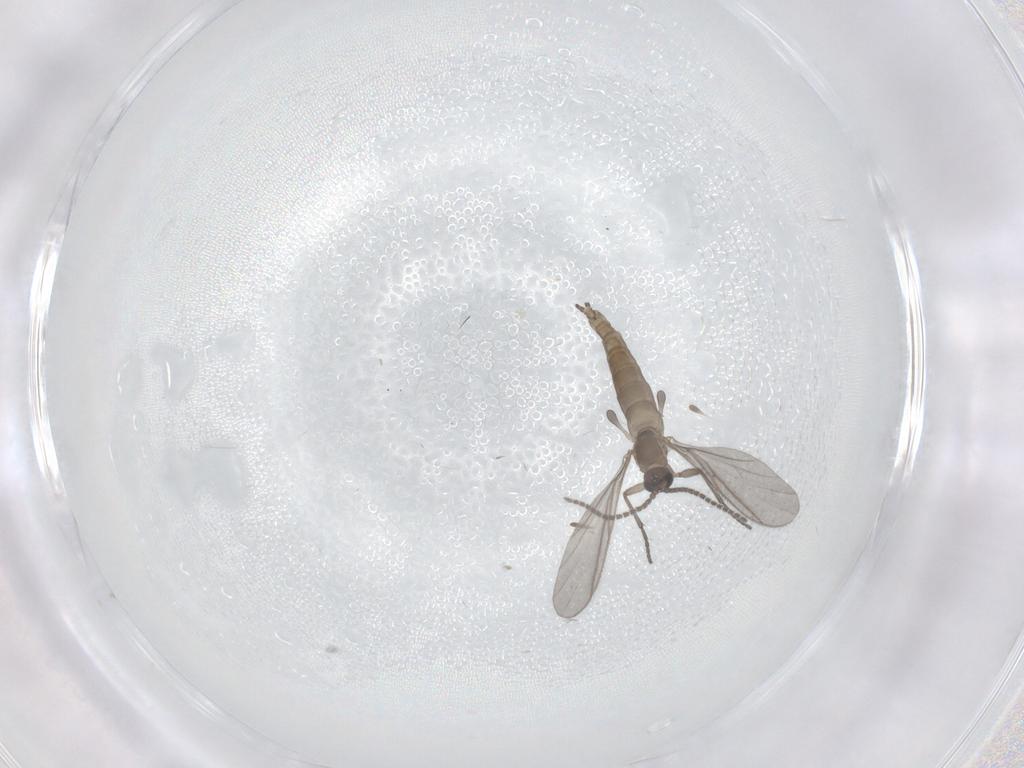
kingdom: Animalia
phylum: Arthropoda
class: Insecta
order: Diptera
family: Sciaridae
